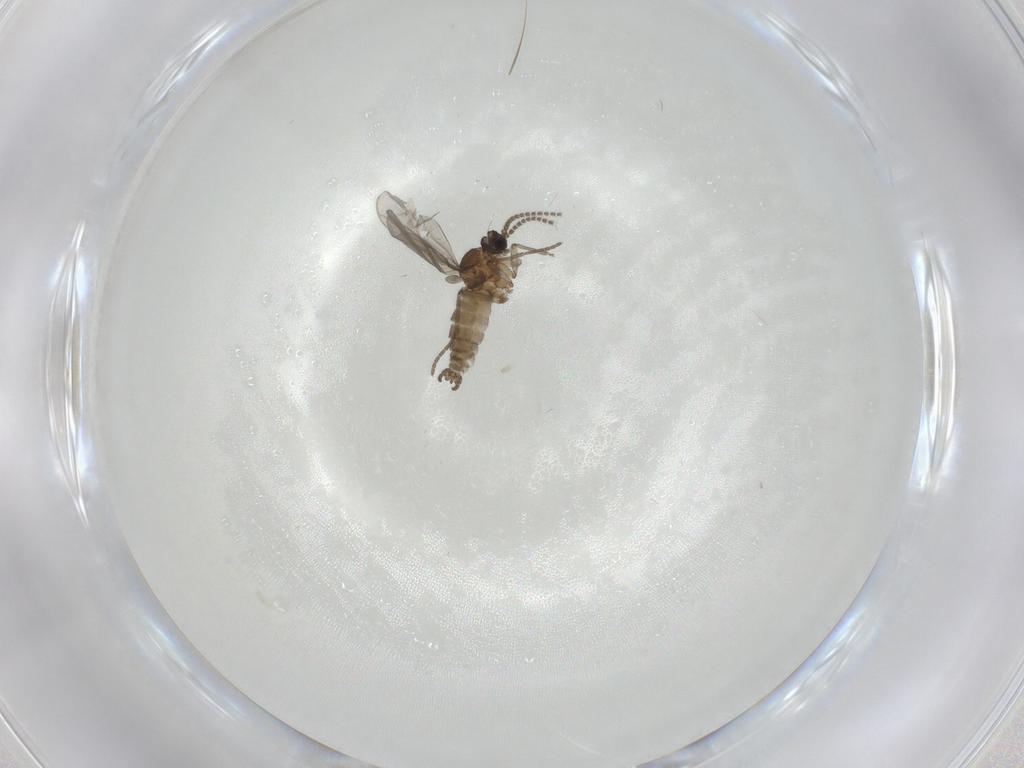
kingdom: Animalia
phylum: Arthropoda
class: Insecta
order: Diptera
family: Sciaridae
